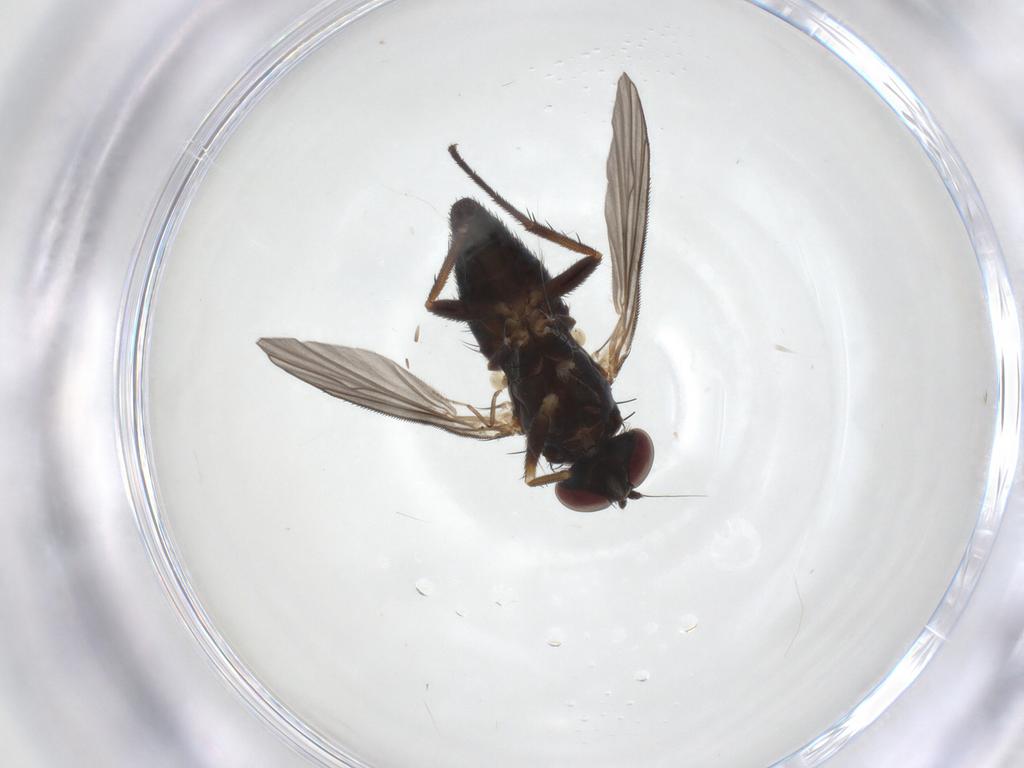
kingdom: Animalia
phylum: Arthropoda
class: Insecta
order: Diptera
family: Dolichopodidae
